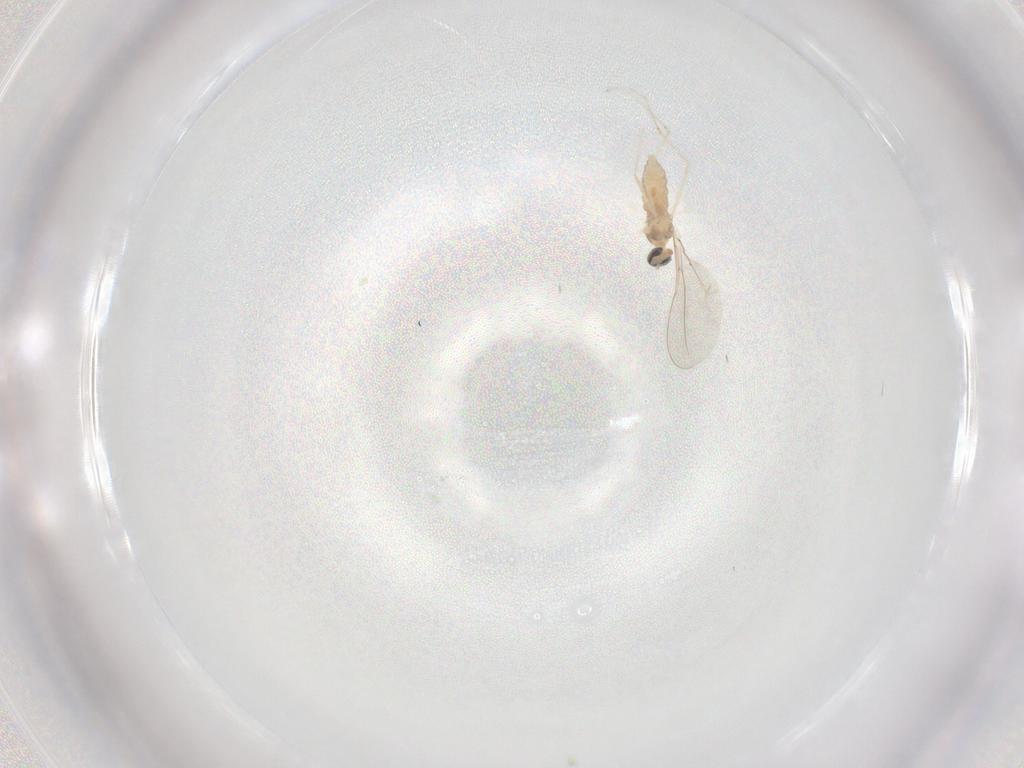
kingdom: Animalia
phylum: Arthropoda
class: Insecta
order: Diptera
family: Cecidomyiidae
